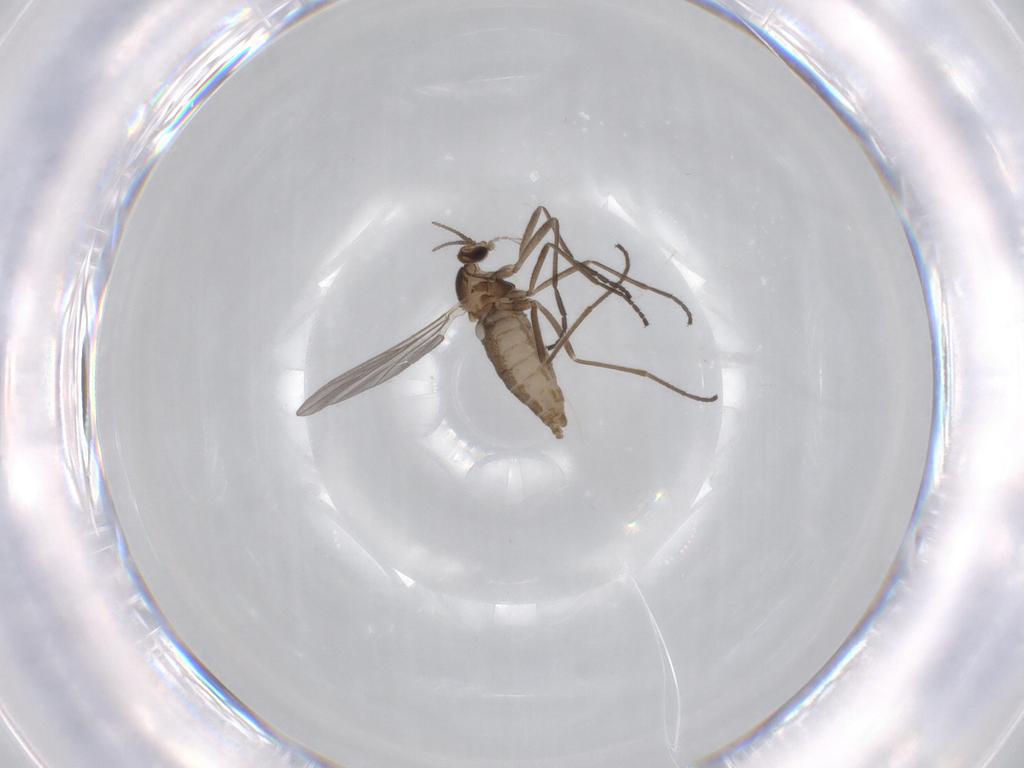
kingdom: Animalia
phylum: Arthropoda
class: Insecta
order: Diptera
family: Cecidomyiidae
